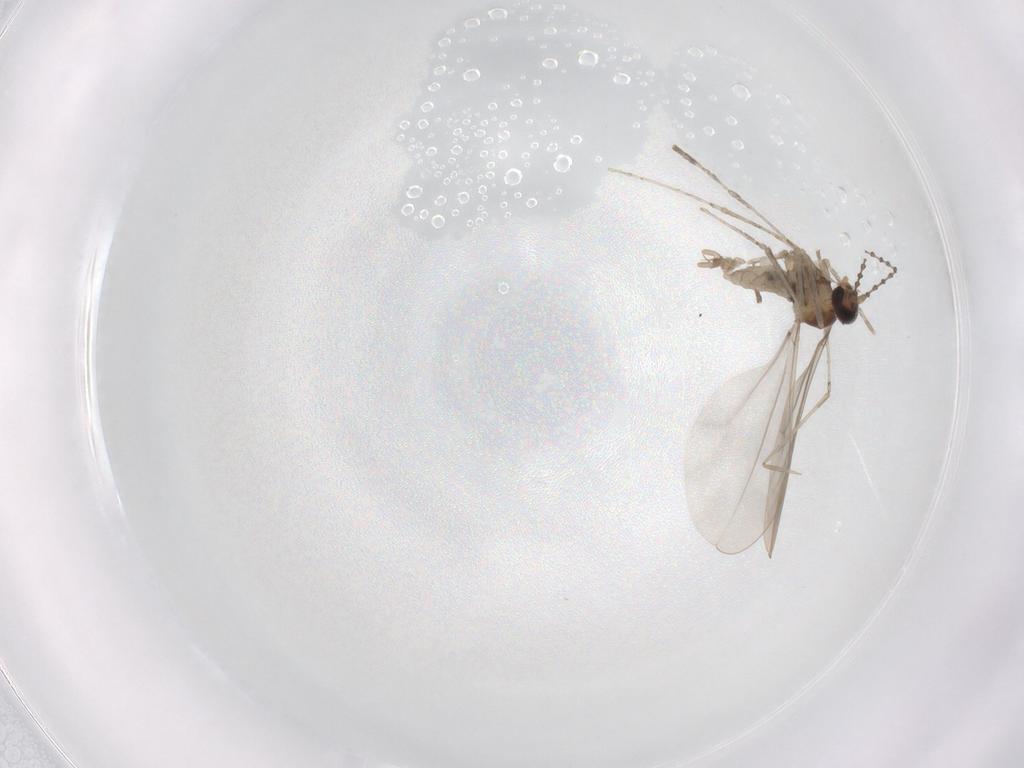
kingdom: Animalia
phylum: Arthropoda
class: Insecta
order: Diptera
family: Cecidomyiidae
